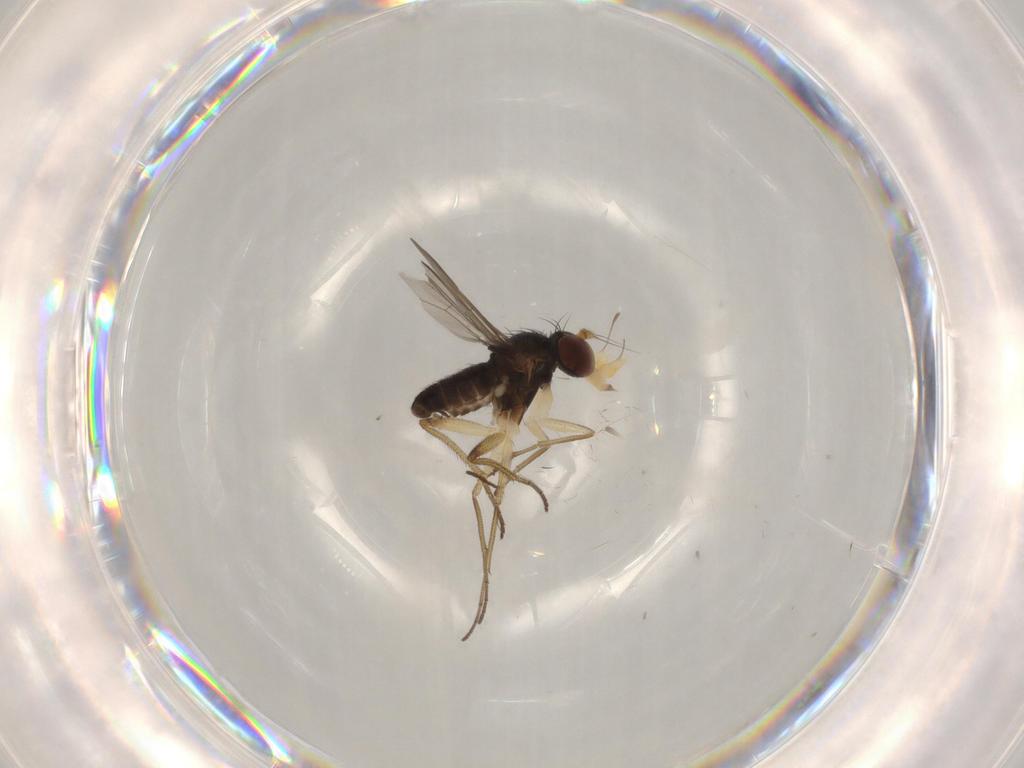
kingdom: Animalia
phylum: Arthropoda
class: Insecta
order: Diptera
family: Dolichopodidae
